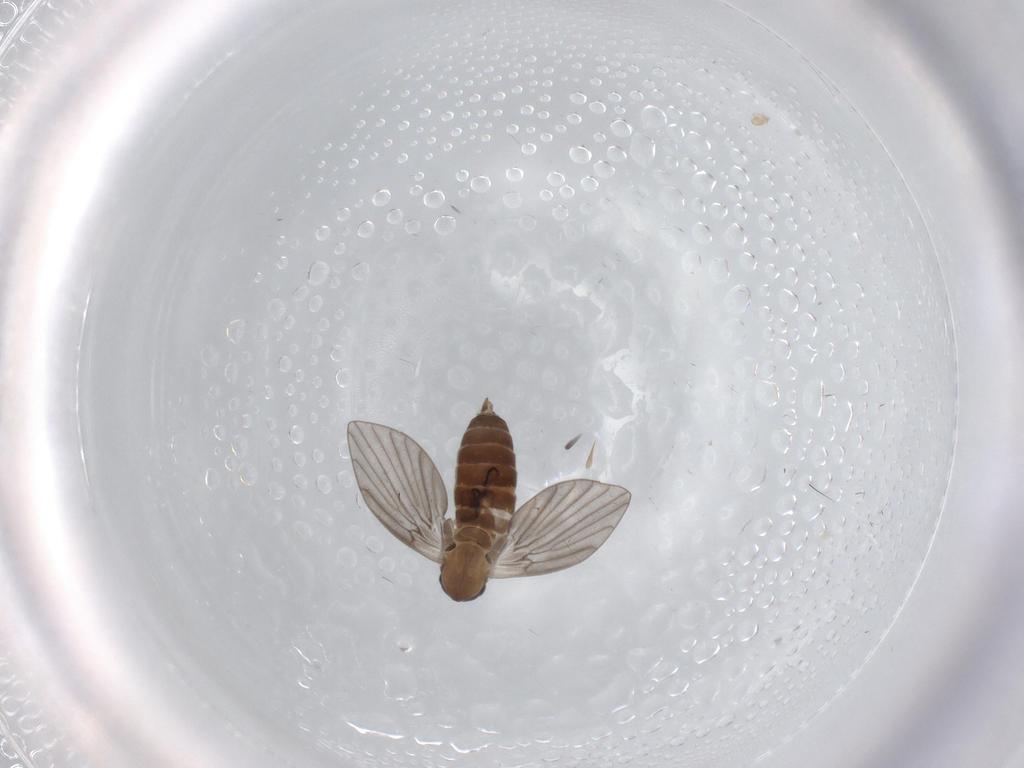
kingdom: Animalia
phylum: Arthropoda
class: Insecta
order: Diptera
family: Sciaridae
